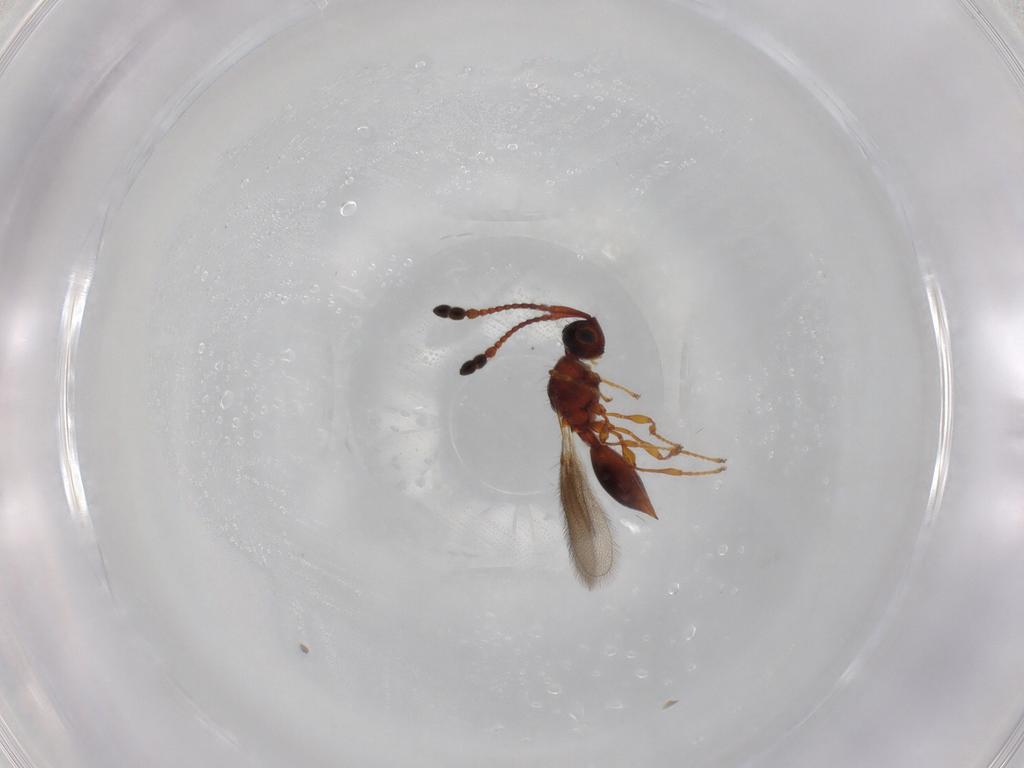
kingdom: Animalia
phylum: Arthropoda
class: Insecta
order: Hymenoptera
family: Diapriidae
